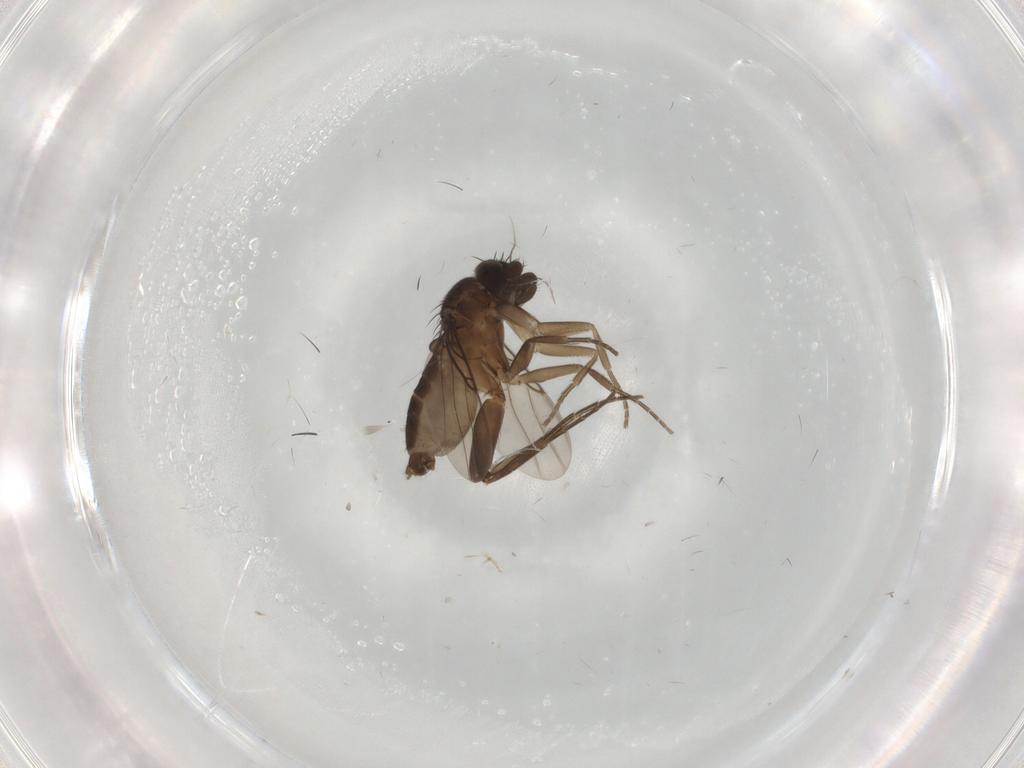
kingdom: Animalia
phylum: Arthropoda
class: Insecta
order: Diptera
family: Phoridae
